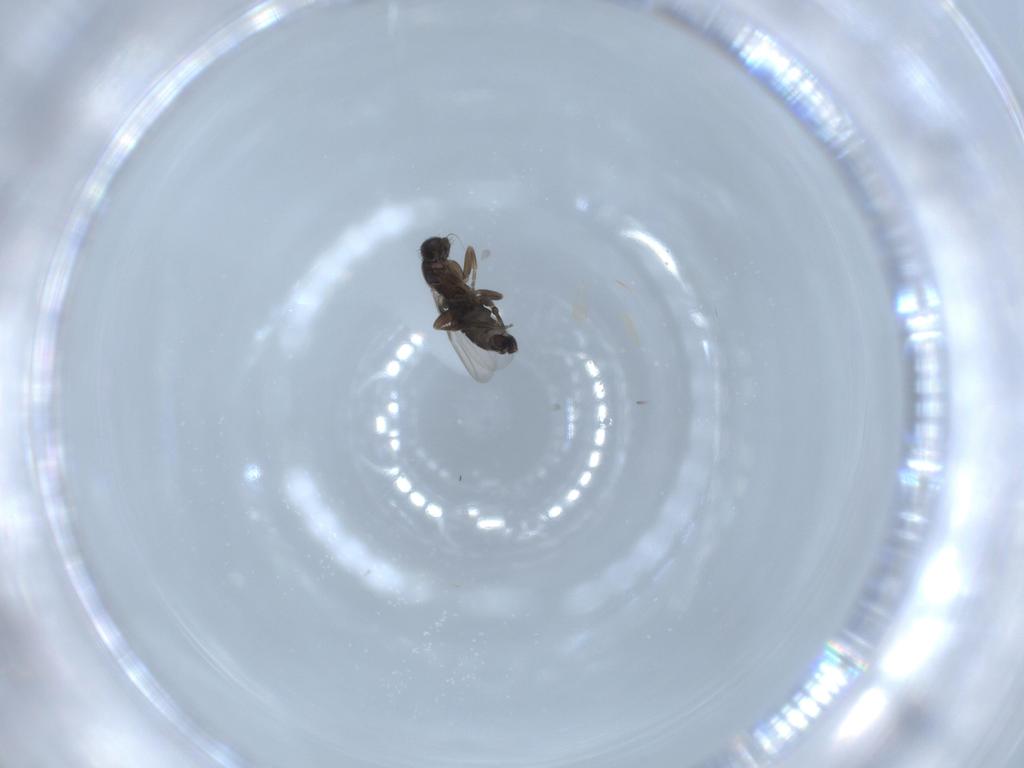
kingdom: Animalia
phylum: Arthropoda
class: Insecta
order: Diptera
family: Phoridae
